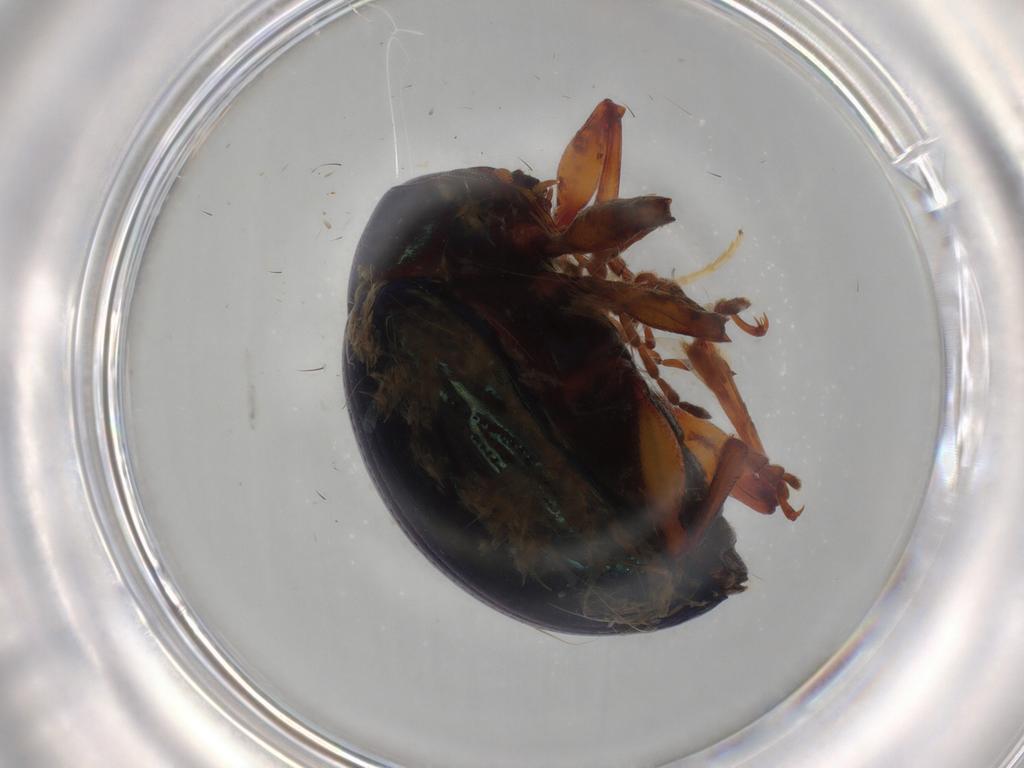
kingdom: Animalia
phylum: Arthropoda
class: Insecta
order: Coleoptera
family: Chrysomelidae
